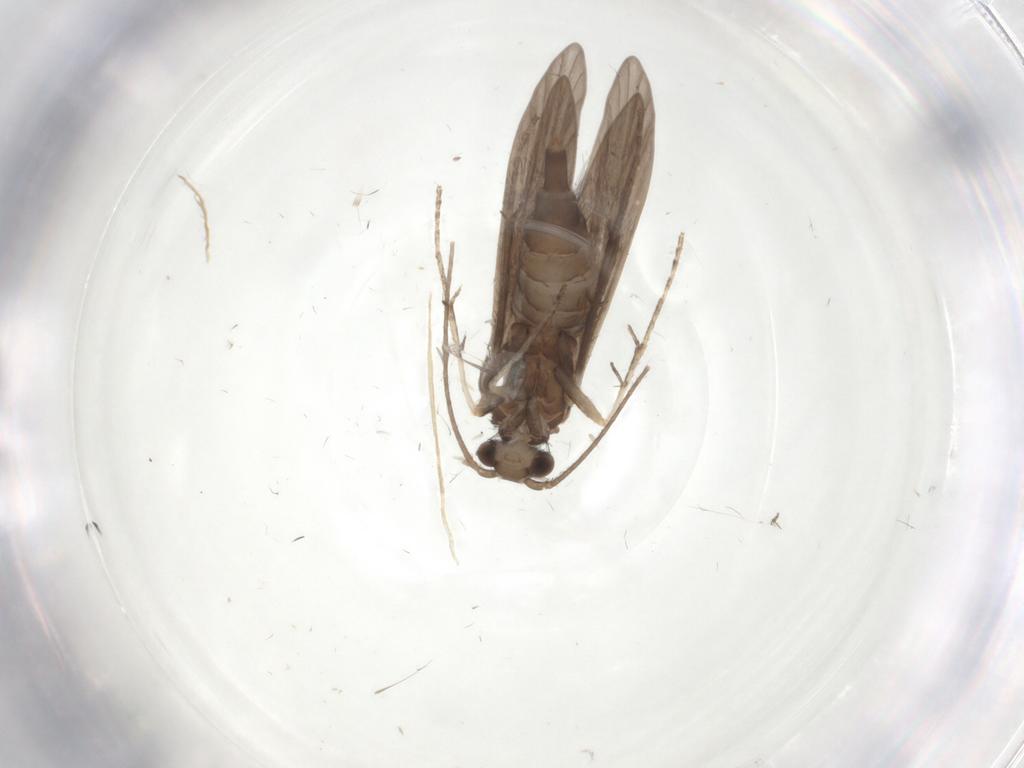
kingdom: Animalia
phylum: Arthropoda
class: Insecta
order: Trichoptera
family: Xiphocentronidae
